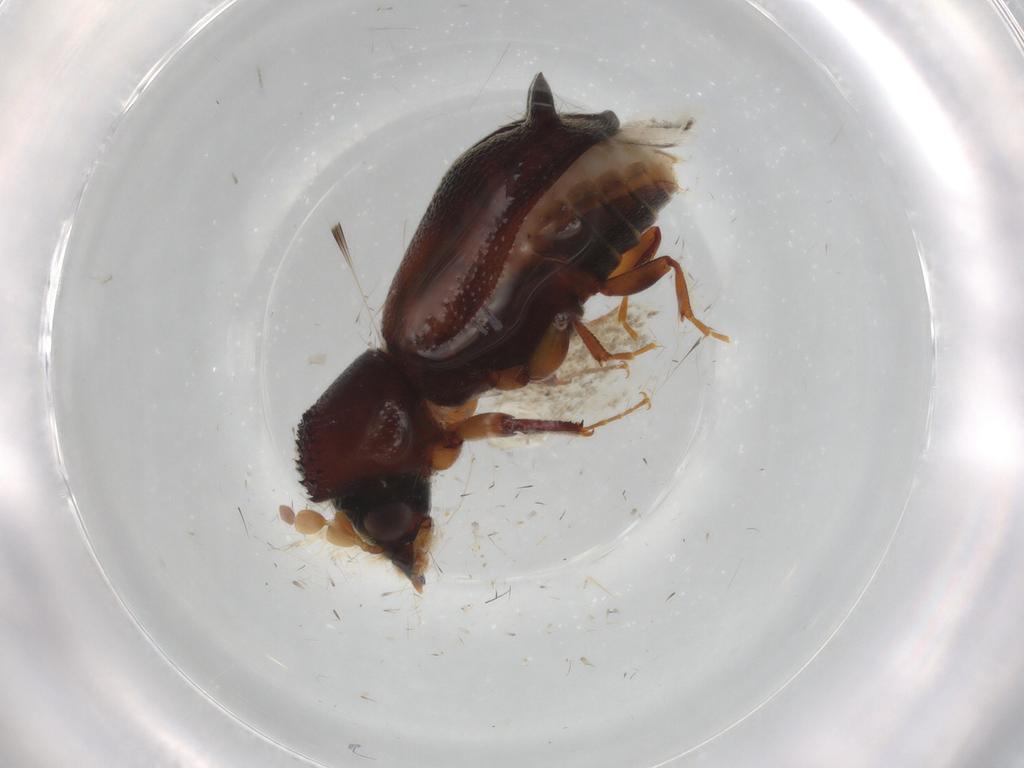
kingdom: Animalia
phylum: Arthropoda
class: Insecta
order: Coleoptera
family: Bostrichidae
